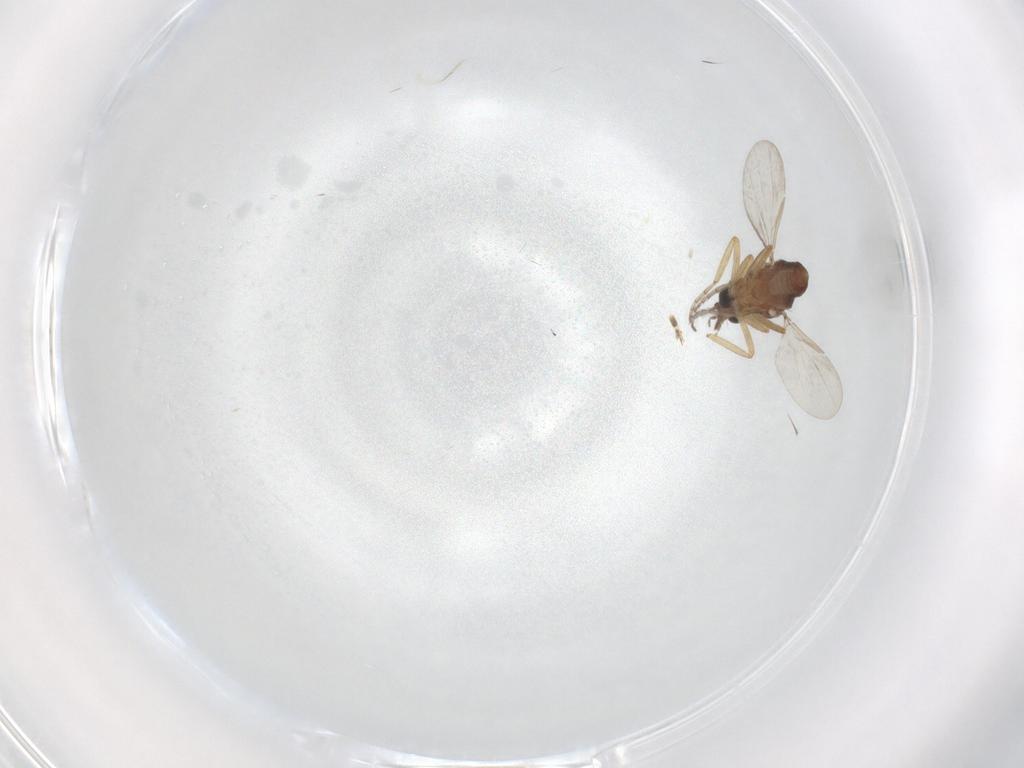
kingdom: Animalia
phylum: Arthropoda
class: Insecta
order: Diptera
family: Ceratopogonidae
